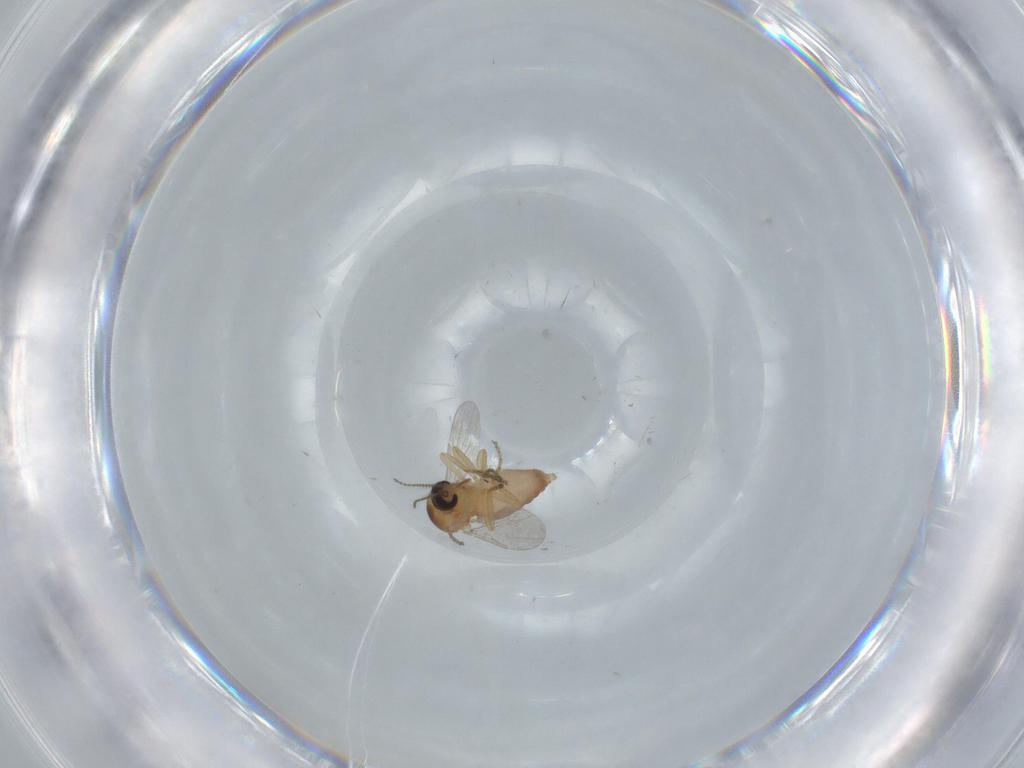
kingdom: Animalia
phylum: Arthropoda
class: Insecta
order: Diptera
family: Ceratopogonidae
